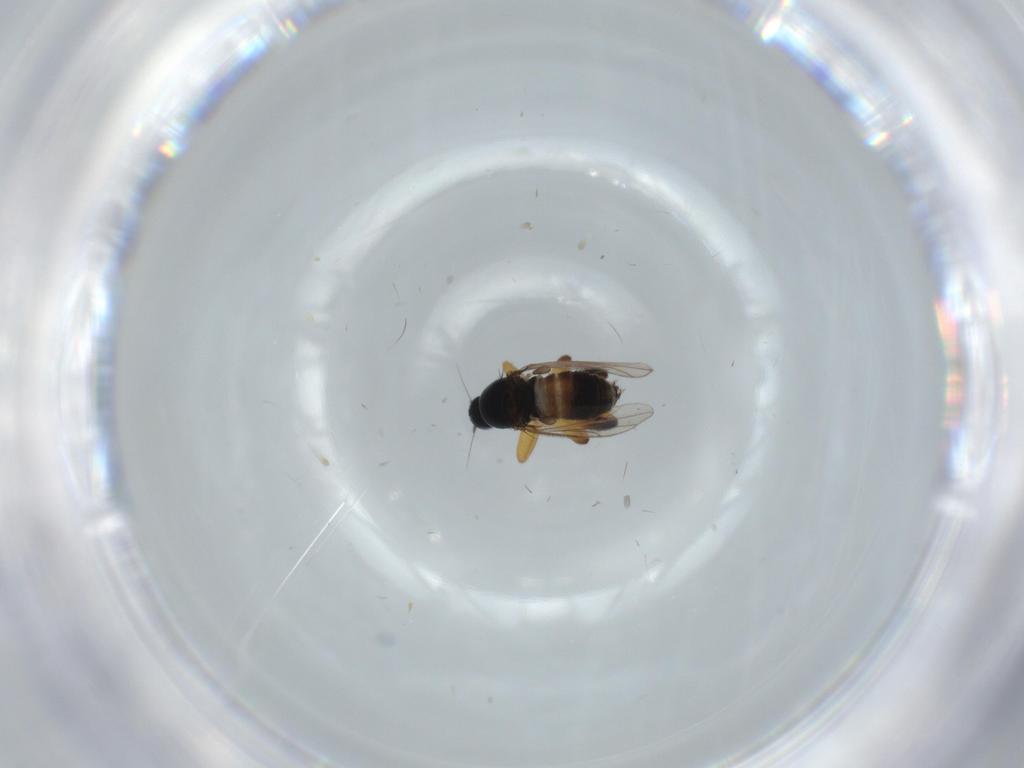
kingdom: Animalia
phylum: Arthropoda
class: Insecta
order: Diptera
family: Hybotidae
